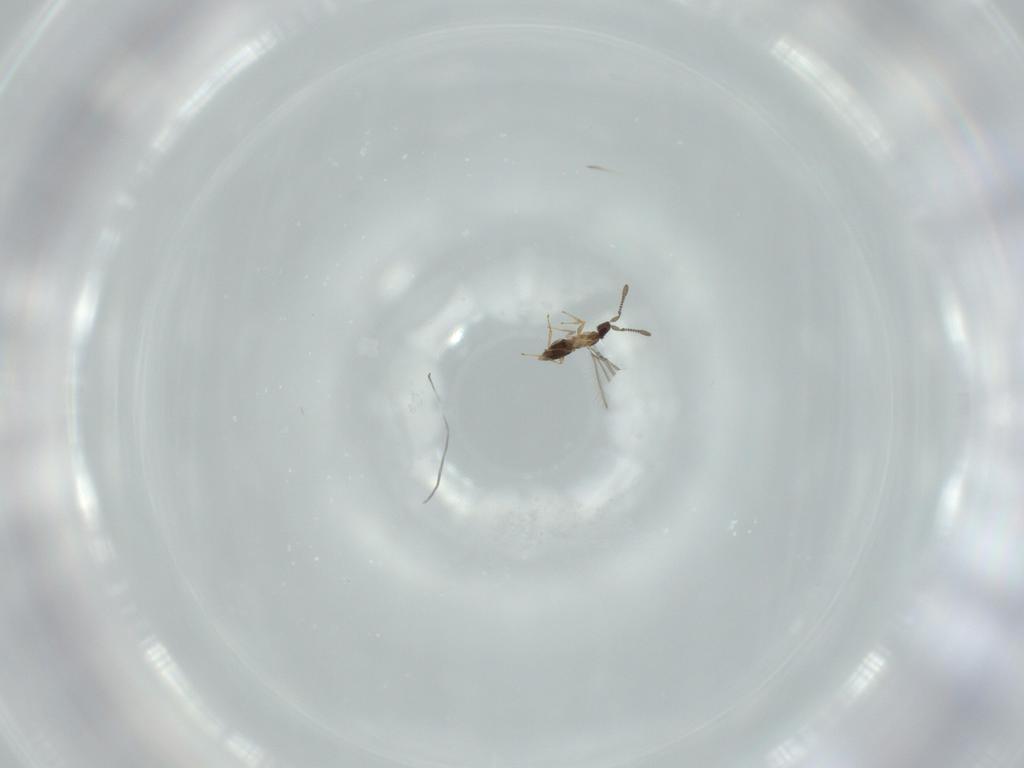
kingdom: Animalia
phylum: Arthropoda
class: Insecta
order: Hymenoptera
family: Mymaridae
